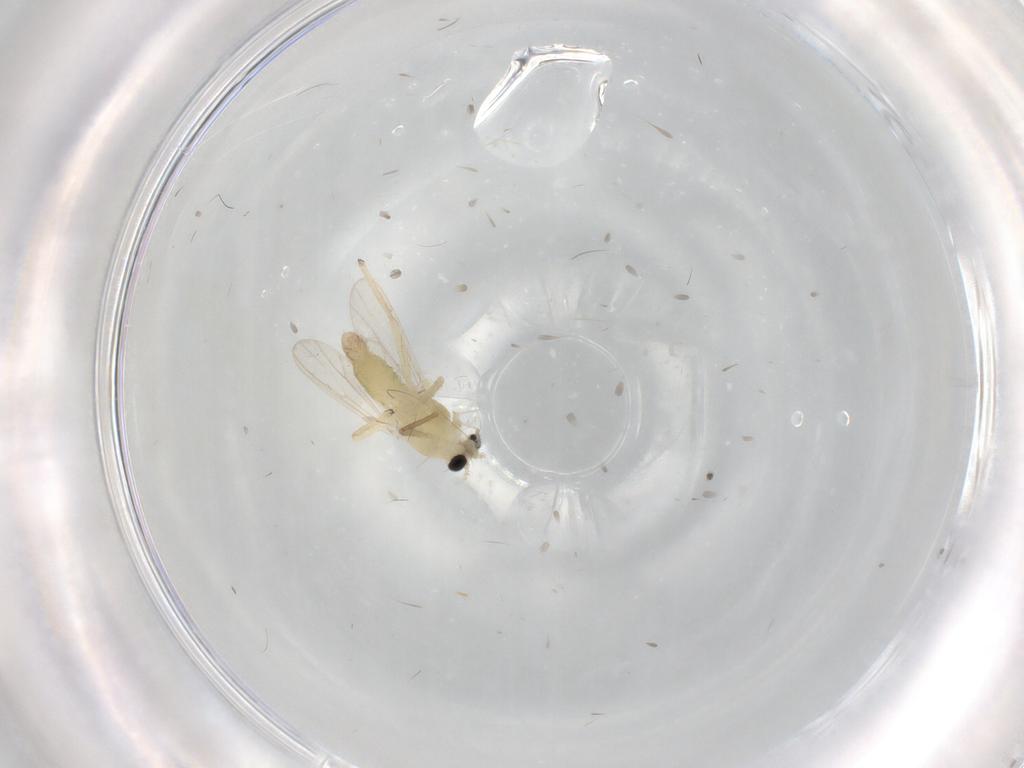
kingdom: Animalia
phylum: Arthropoda
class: Insecta
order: Diptera
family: Chironomidae
